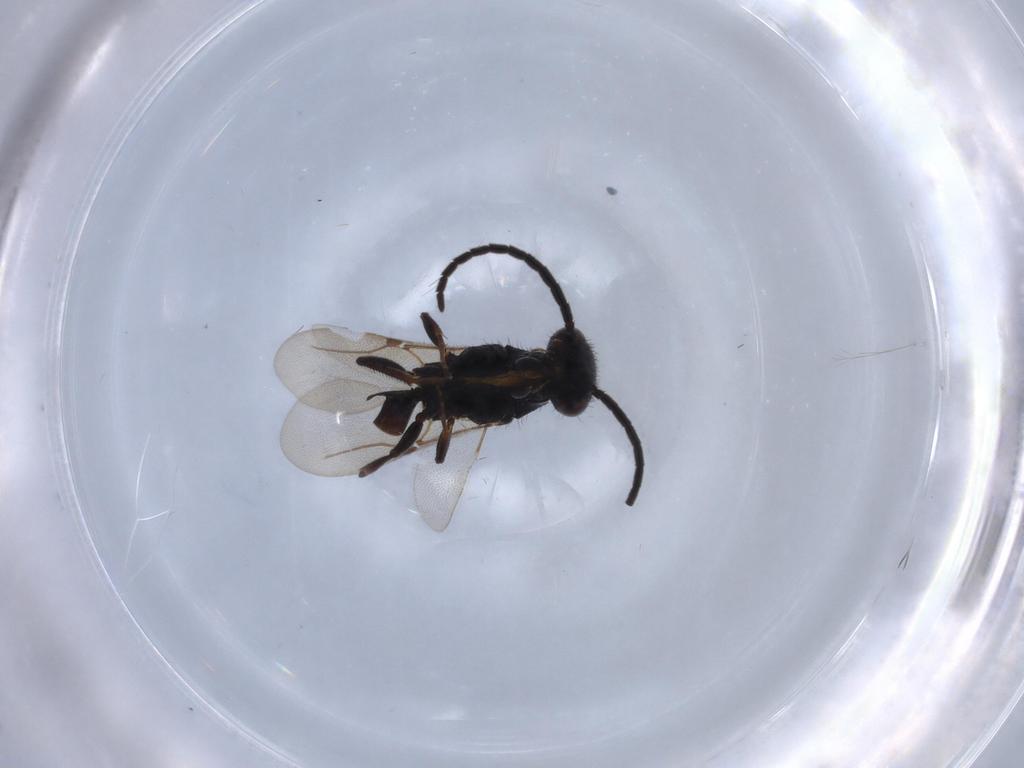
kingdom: Animalia
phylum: Arthropoda
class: Insecta
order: Hymenoptera
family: Bethylidae
